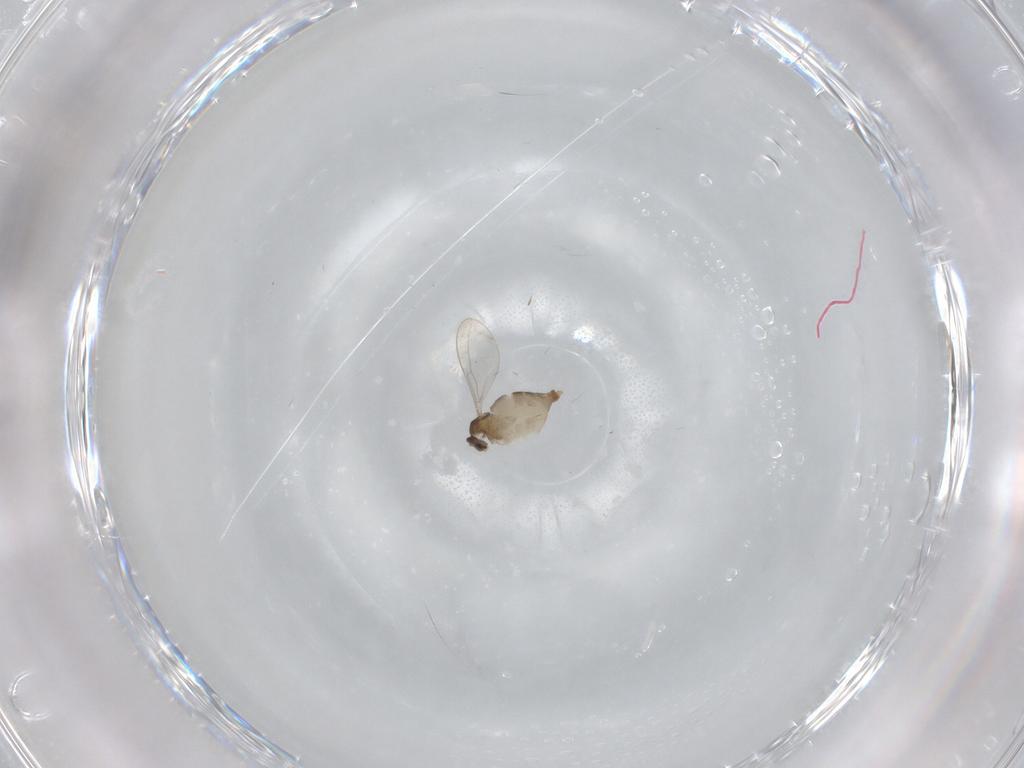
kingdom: Animalia
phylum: Arthropoda
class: Insecta
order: Diptera
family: Cecidomyiidae
